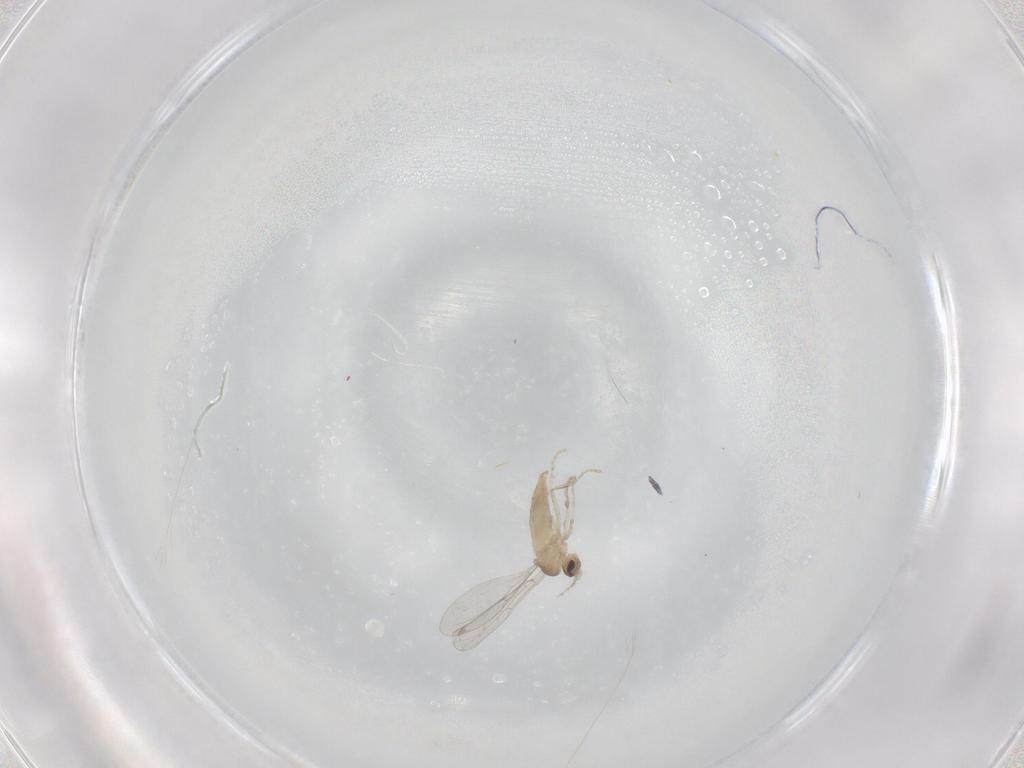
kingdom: Animalia
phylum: Arthropoda
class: Insecta
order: Diptera
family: Cecidomyiidae
